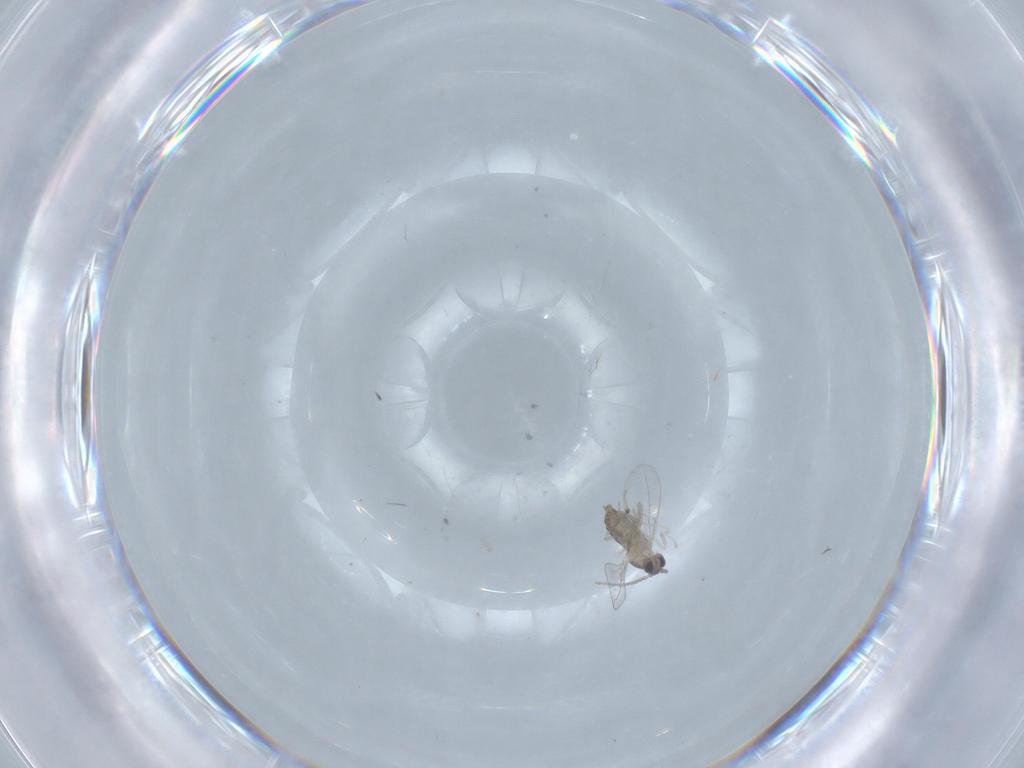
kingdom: Animalia
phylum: Arthropoda
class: Insecta
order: Diptera
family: Cecidomyiidae
